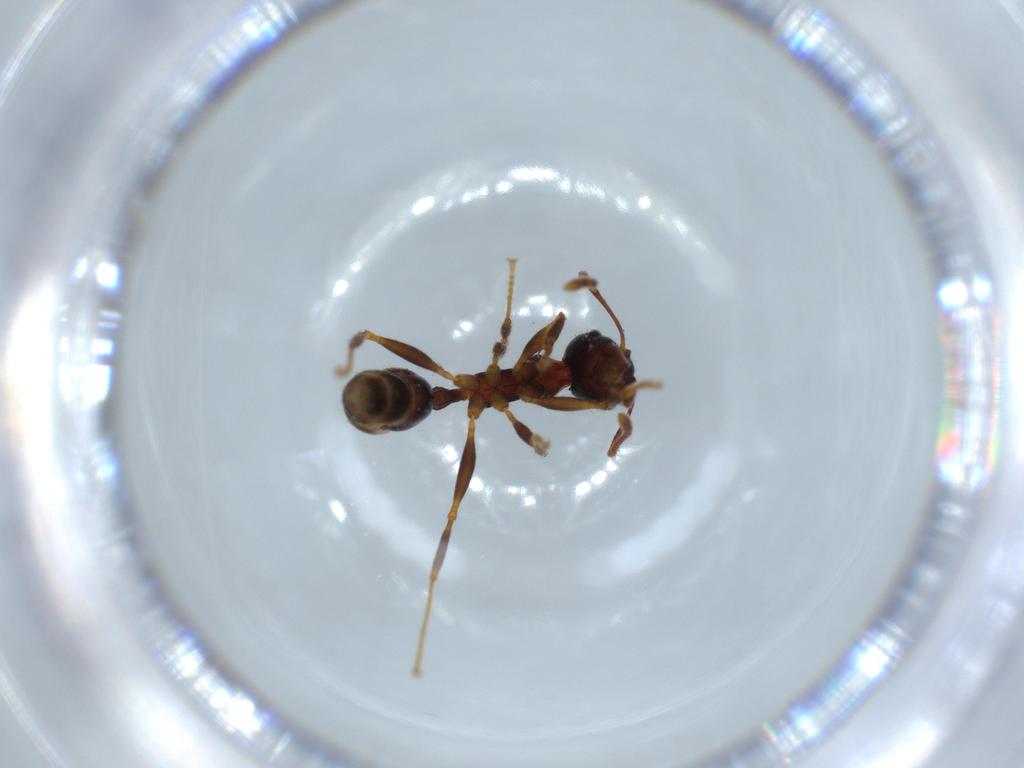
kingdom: Animalia
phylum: Arthropoda
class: Insecta
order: Hymenoptera
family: Formicidae
